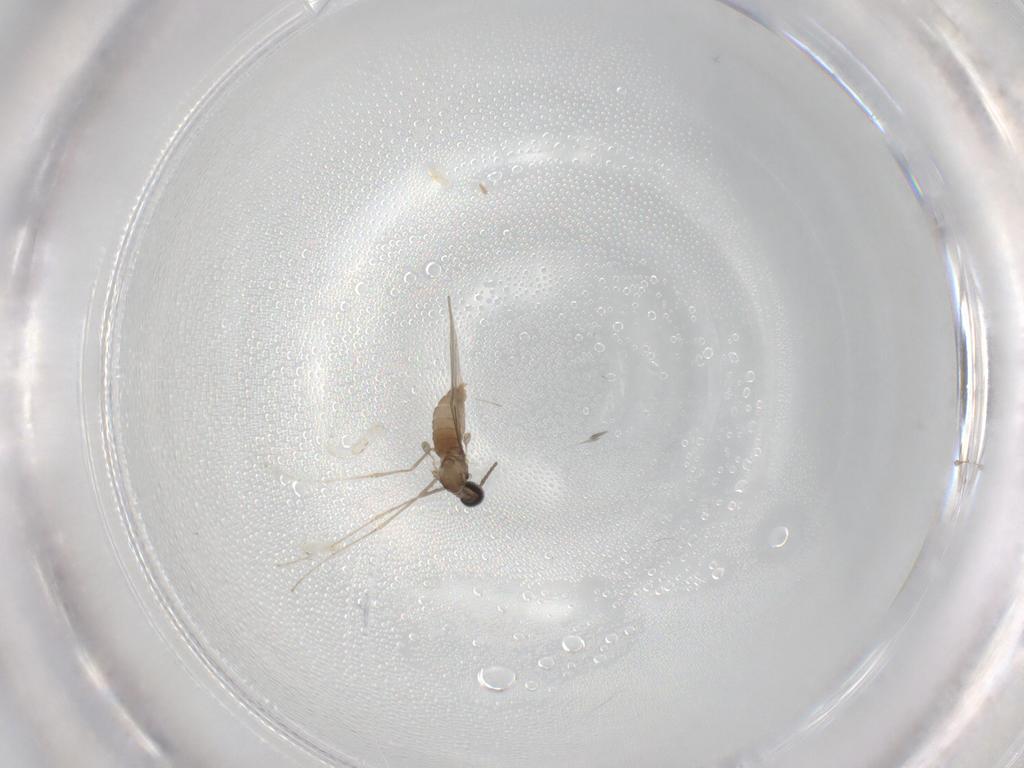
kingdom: Animalia
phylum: Arthropoda
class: Insecta
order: Diptera
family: Cecidomyiidae
